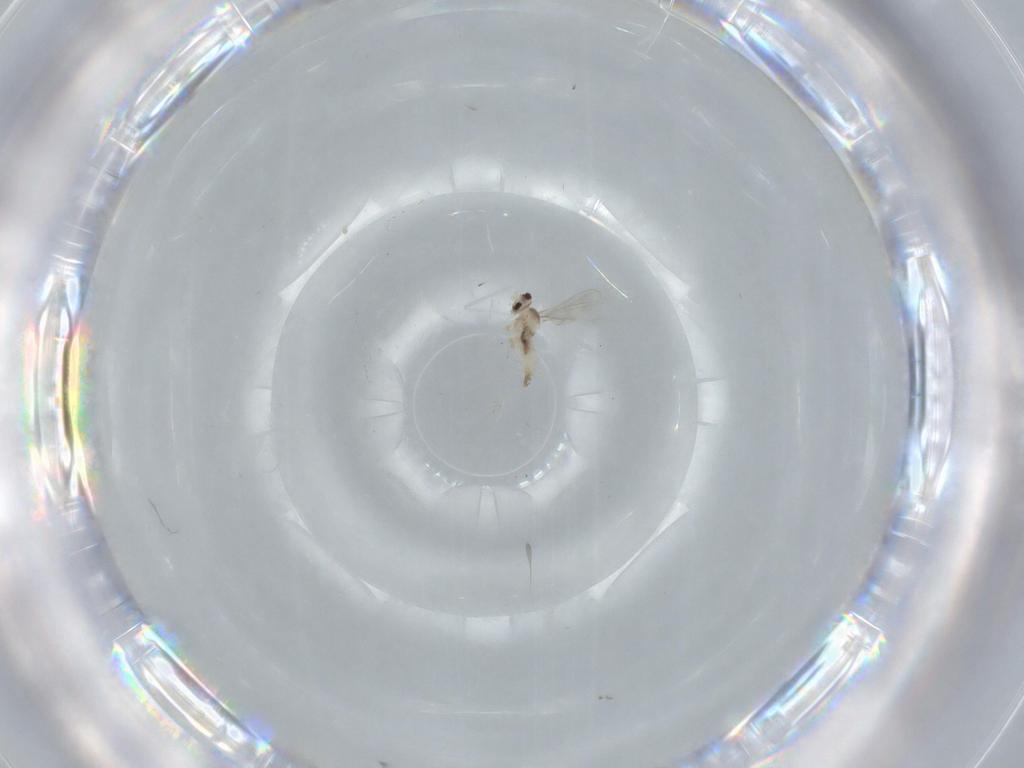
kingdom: Animalia
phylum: Arthropoda
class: Insecta
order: Diptera
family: Cecidomyiidae
